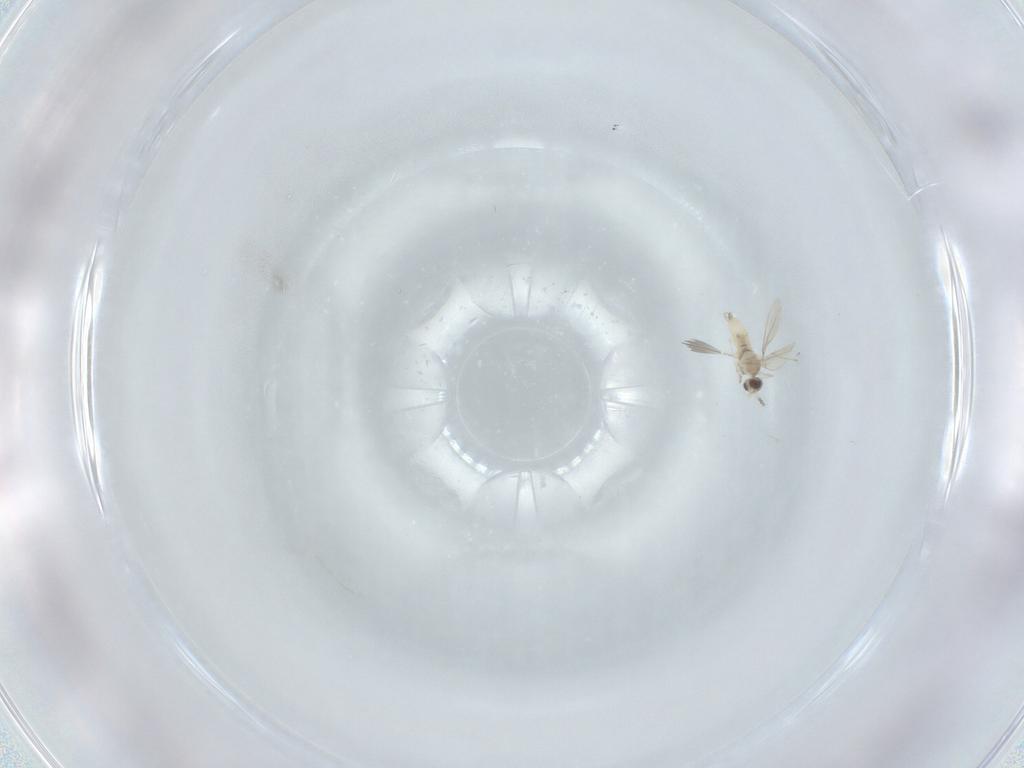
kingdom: Animalia
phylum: Arthropoda
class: Insecta
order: Diptera
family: Cecidomyiidae
